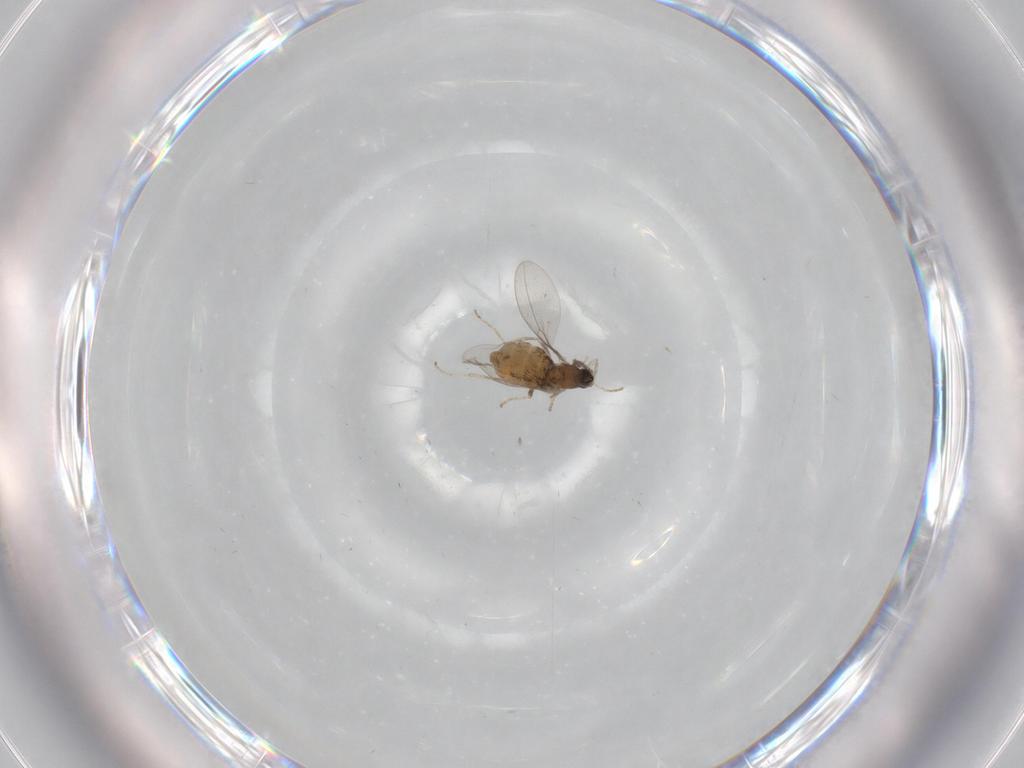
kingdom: Animalia
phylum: Arthropoda
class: Insecta
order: Diptera
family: Cecidomyiidae
